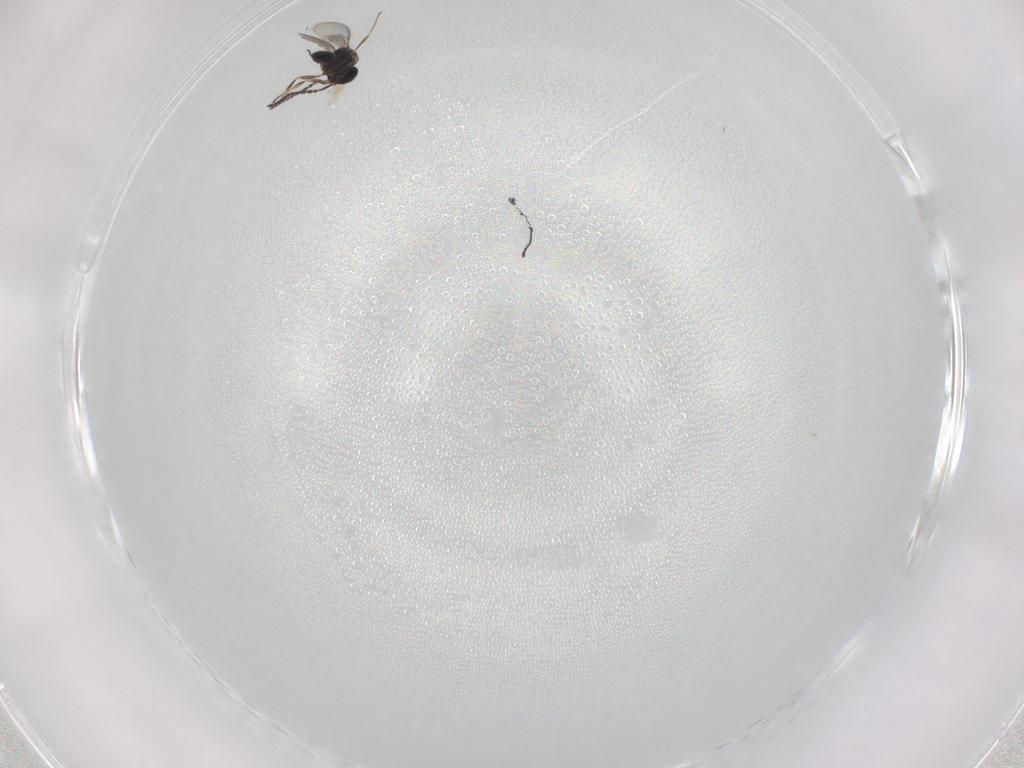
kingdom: Animalia
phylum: Arthropoda
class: Insecta
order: Hymenoptera
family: Scelionidae
